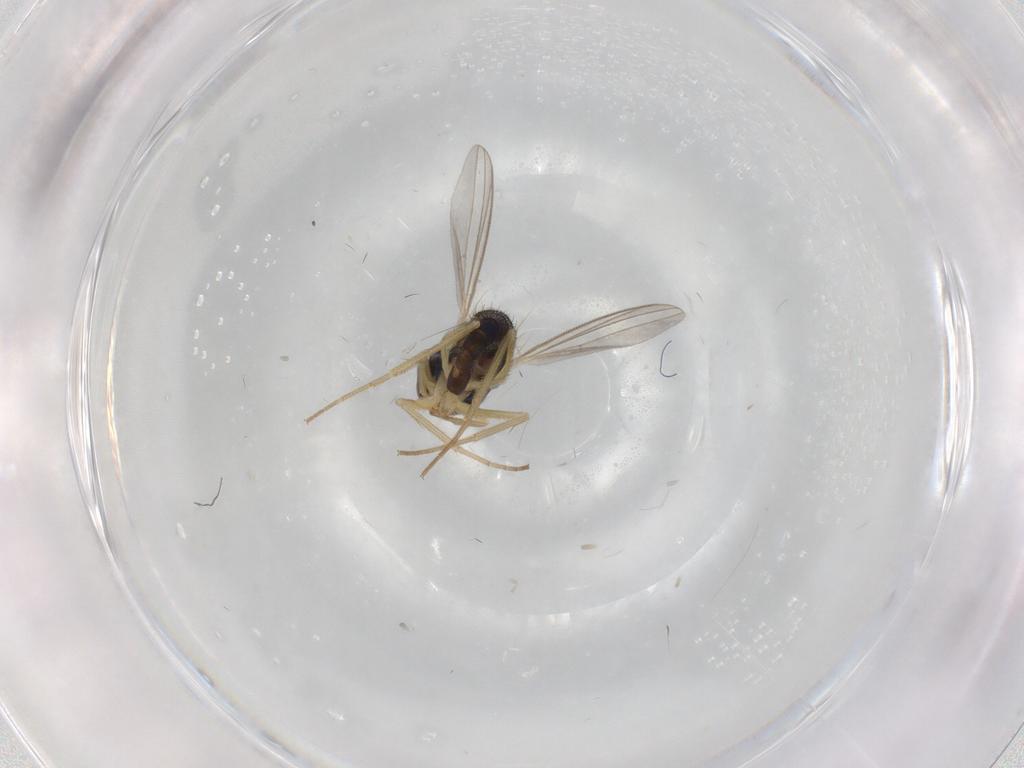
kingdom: Animalia
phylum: Arthropoda
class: Insecta
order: Diptera
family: Dolichopodidae
